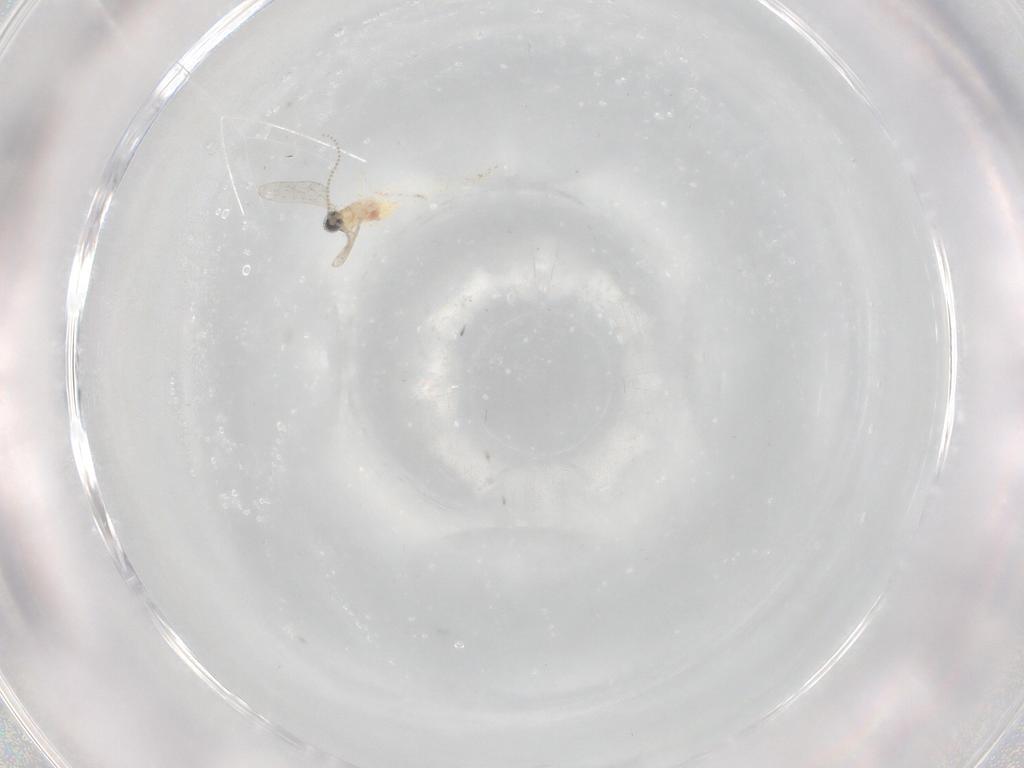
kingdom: Animalia
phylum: Arthropoda
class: Insecta
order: Diptera
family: Cecidomyiidae
